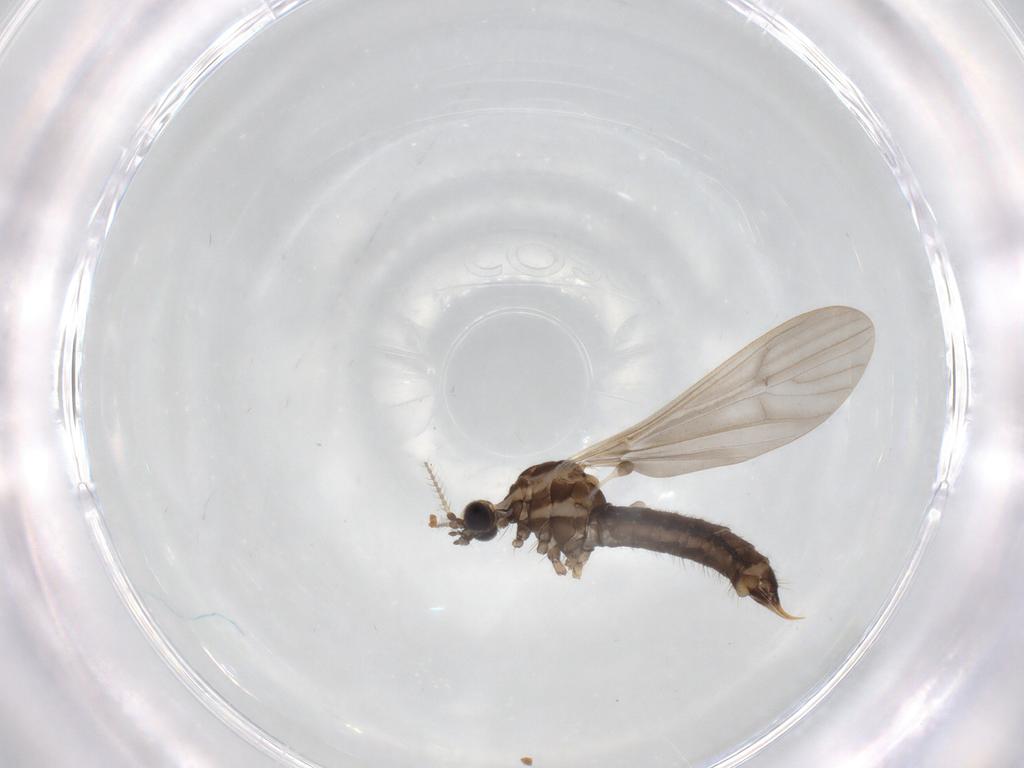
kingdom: Animalia
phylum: Arthropoda
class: Insecta
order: Diptera
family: Limoniidae
